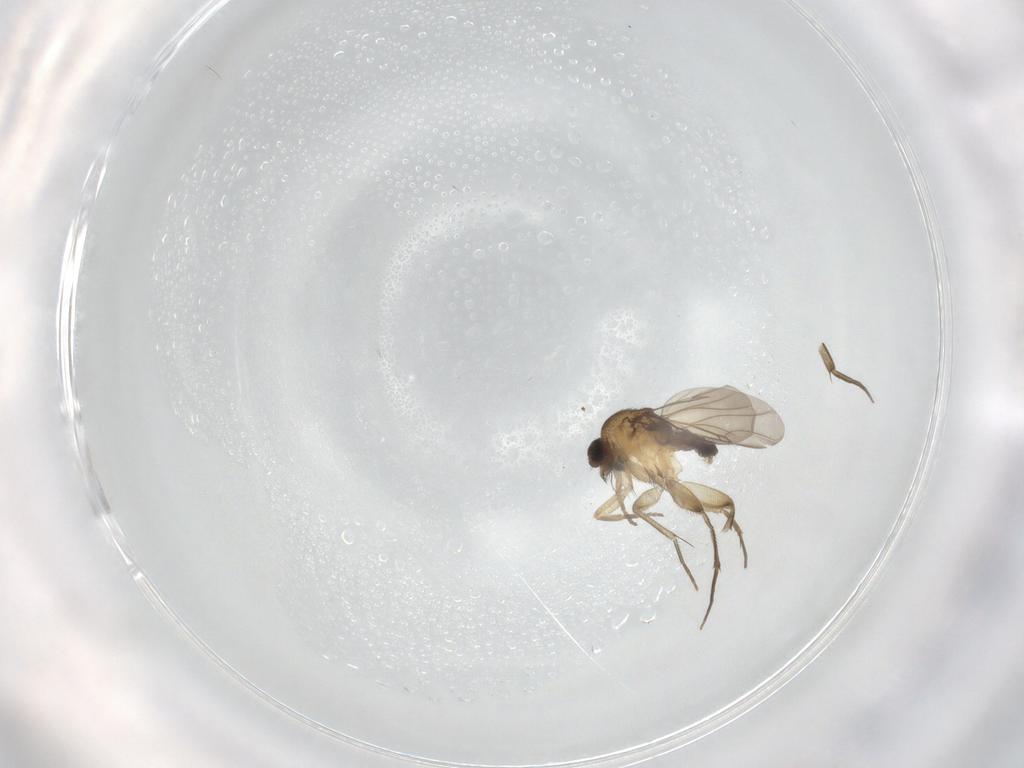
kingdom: Animalia
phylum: Arthropoda
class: Insecta
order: Diptera
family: Phoridae
